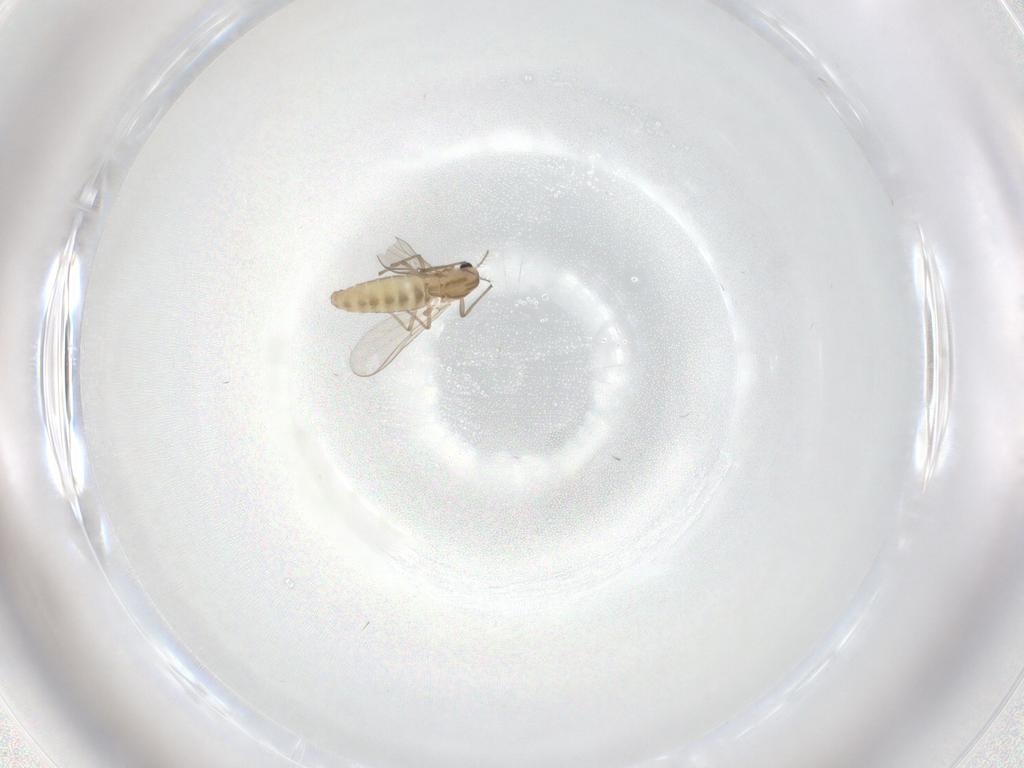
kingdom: Animalia
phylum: Arthropoda
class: Insecta
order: Diptera
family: Chironomidae
